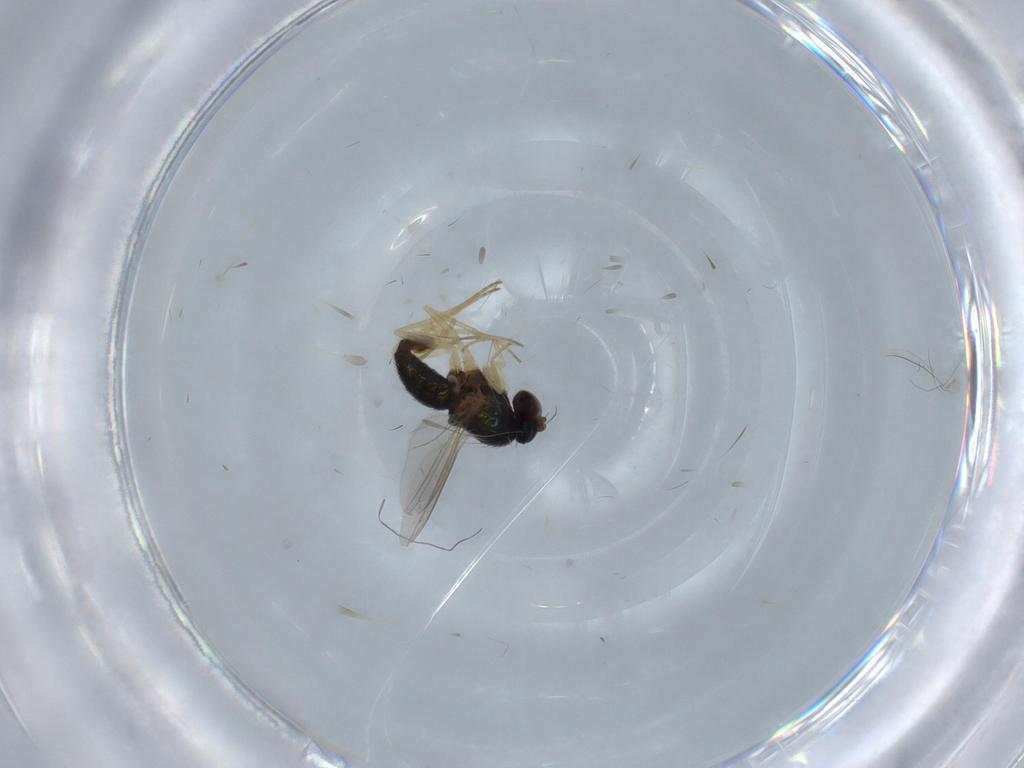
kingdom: Animalia
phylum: Arthropoda
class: Insecta
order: Diptera
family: Dolichopodidae
